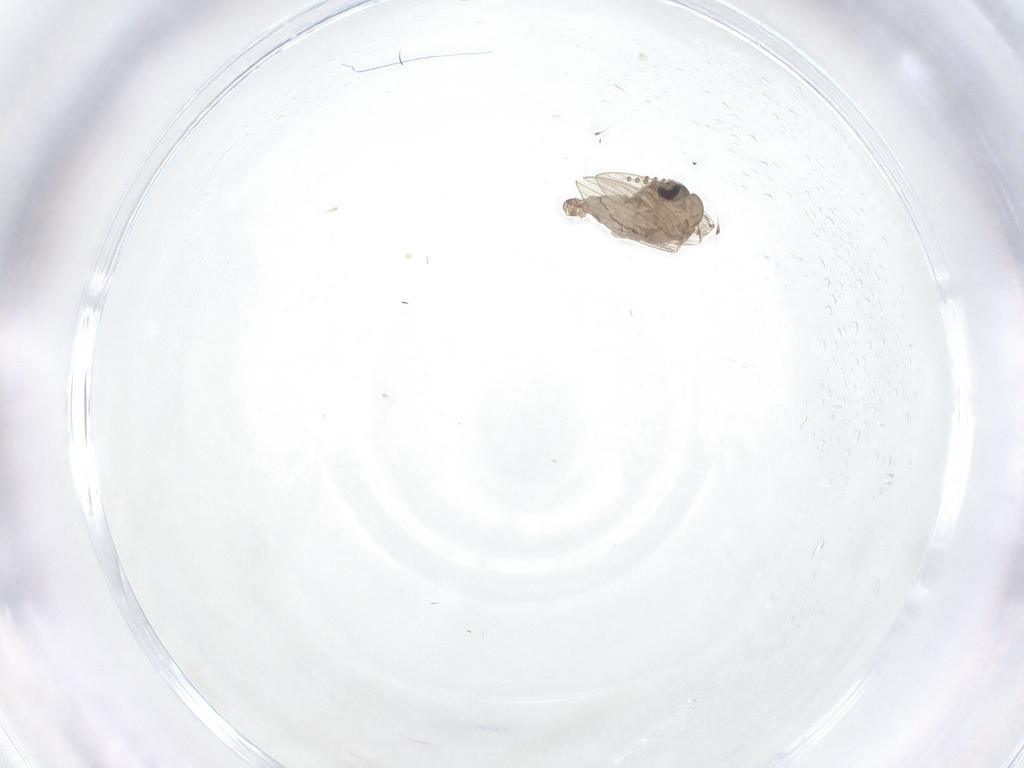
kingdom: Animalia
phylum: Arthropoda
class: Insecta
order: Diptera
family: Psychodidae
